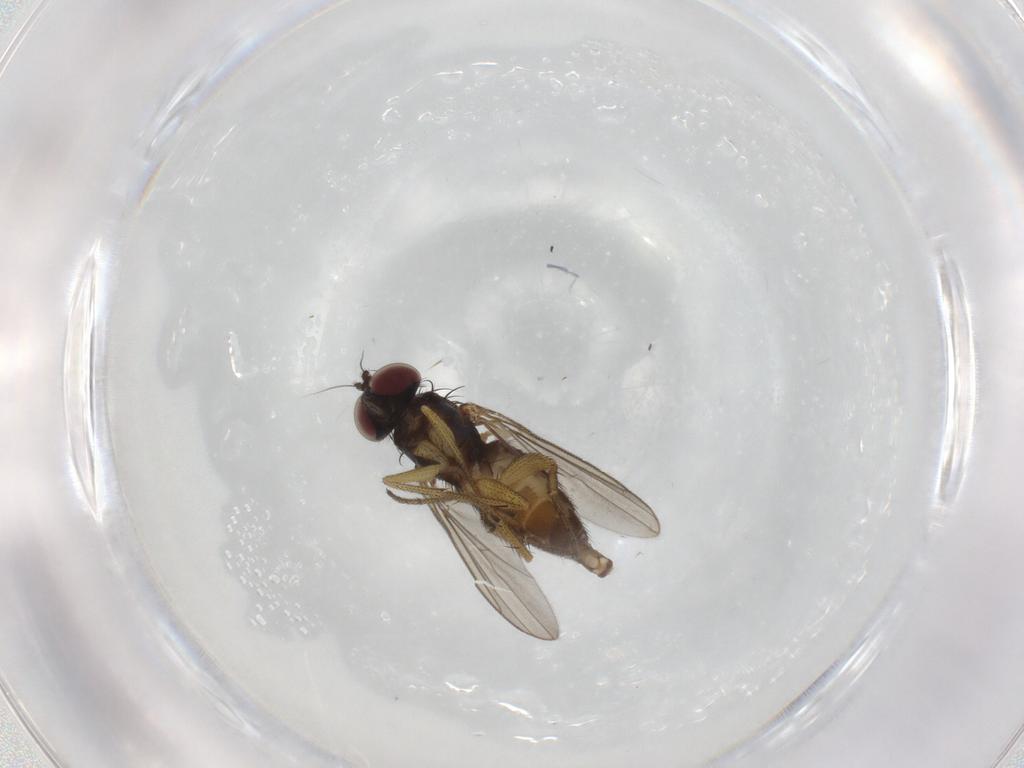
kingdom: Animalia
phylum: Arthropoda
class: Insecta
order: Diptera
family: Dolichopodidae
